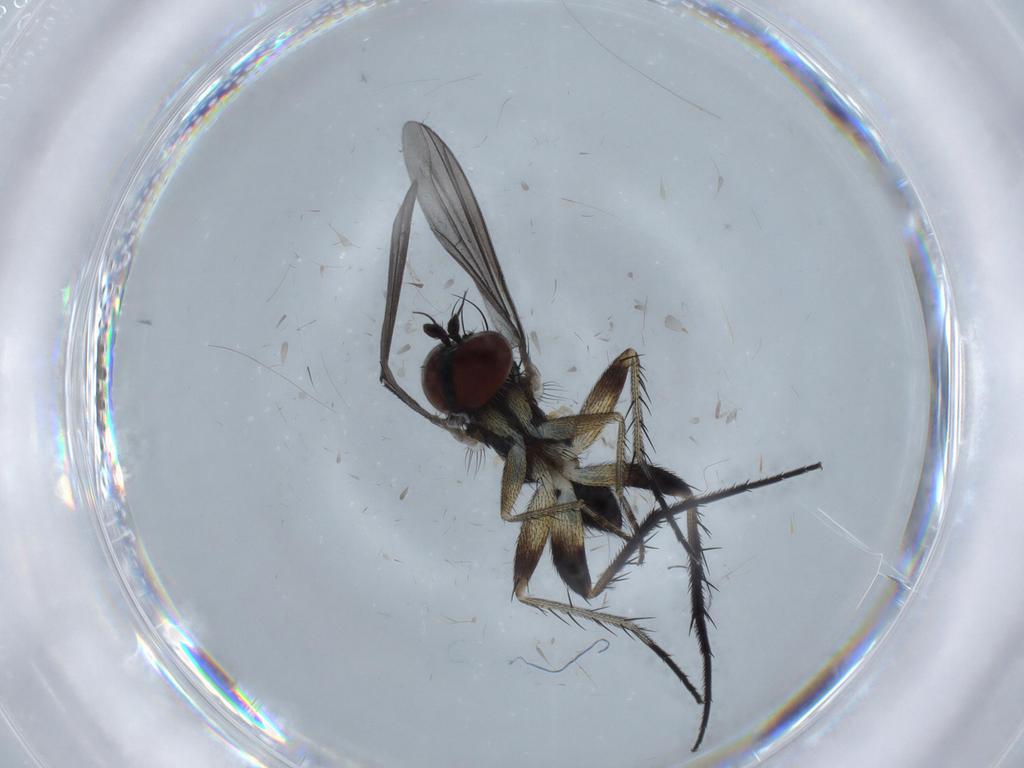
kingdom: Animalia
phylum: Arthropoda
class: Insecta
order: Diptera
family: Dolichopodidae
